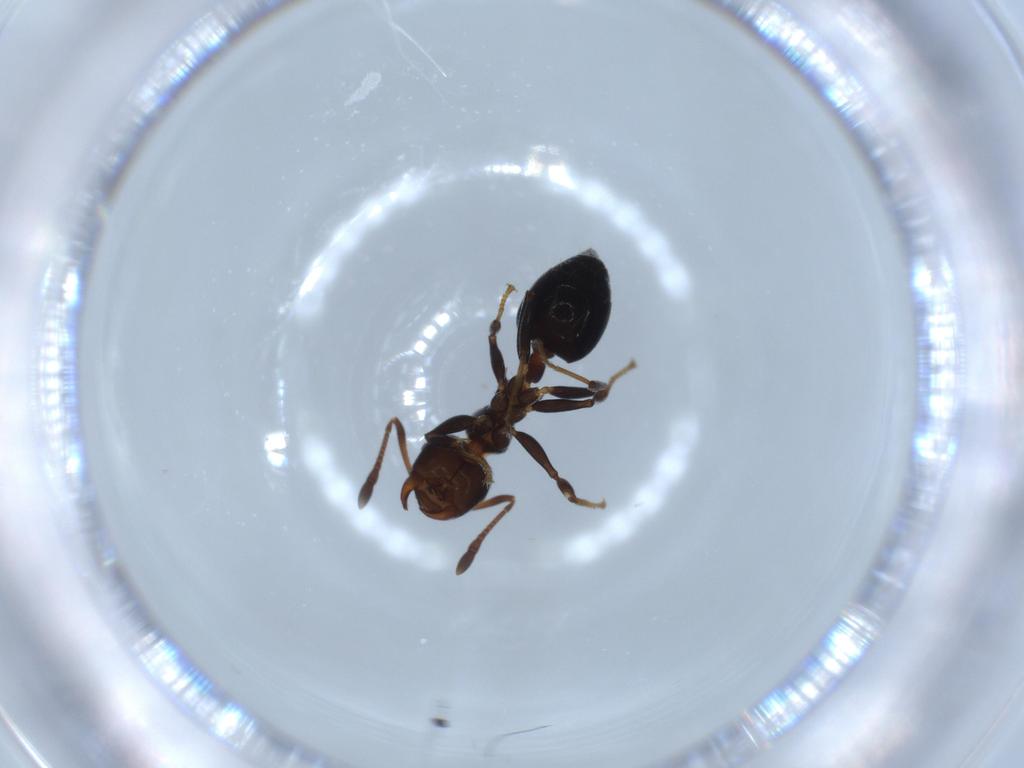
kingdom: Animalia
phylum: Arthropoda
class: Insecta
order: Hymenoptera
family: Formicidae
